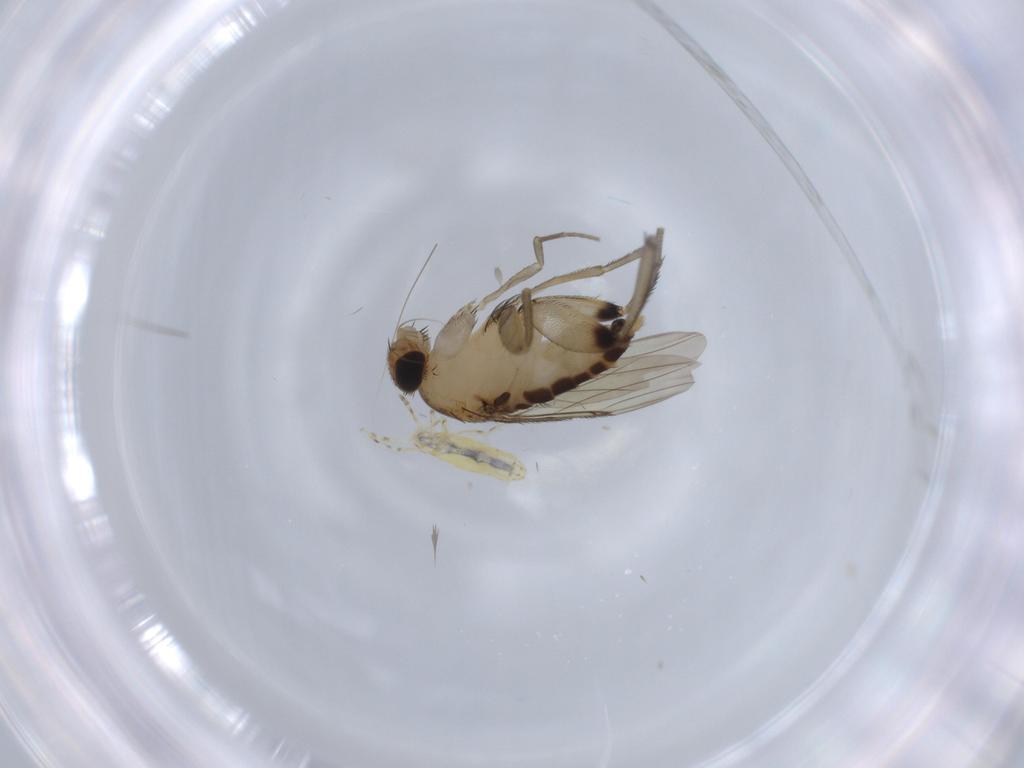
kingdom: Animalia
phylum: Arthropoda
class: Insecta
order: Diptera
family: Phoridae
